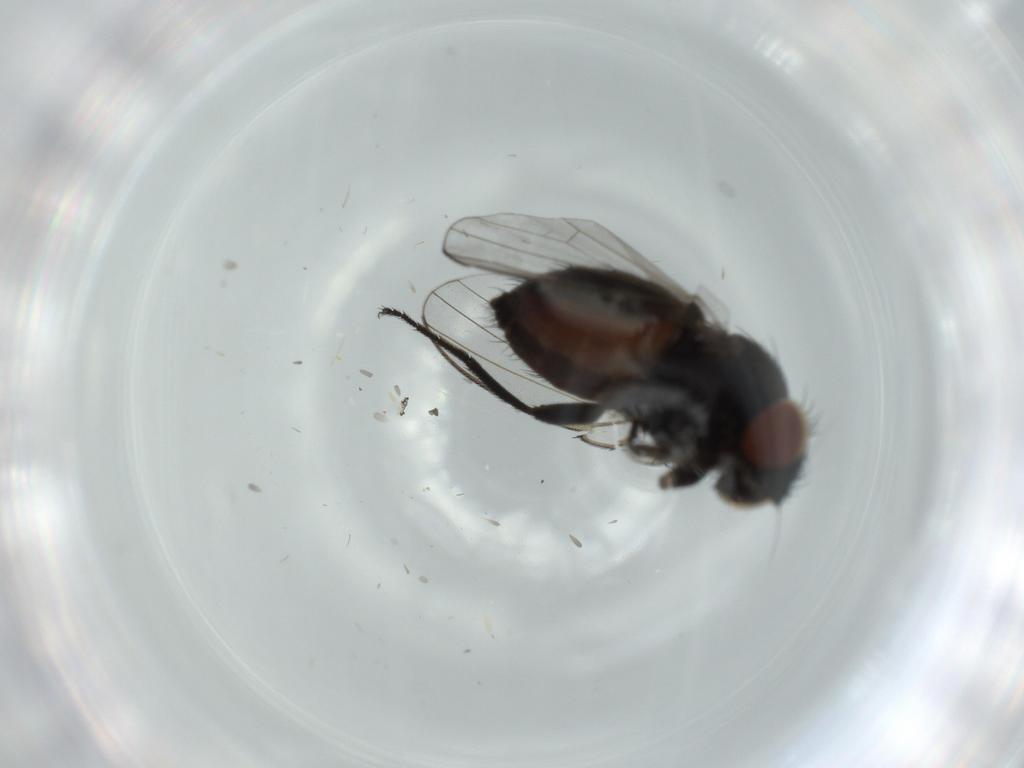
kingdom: Animalia
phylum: Arthropoda
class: Insecta
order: Diptera
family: Milichiidae
